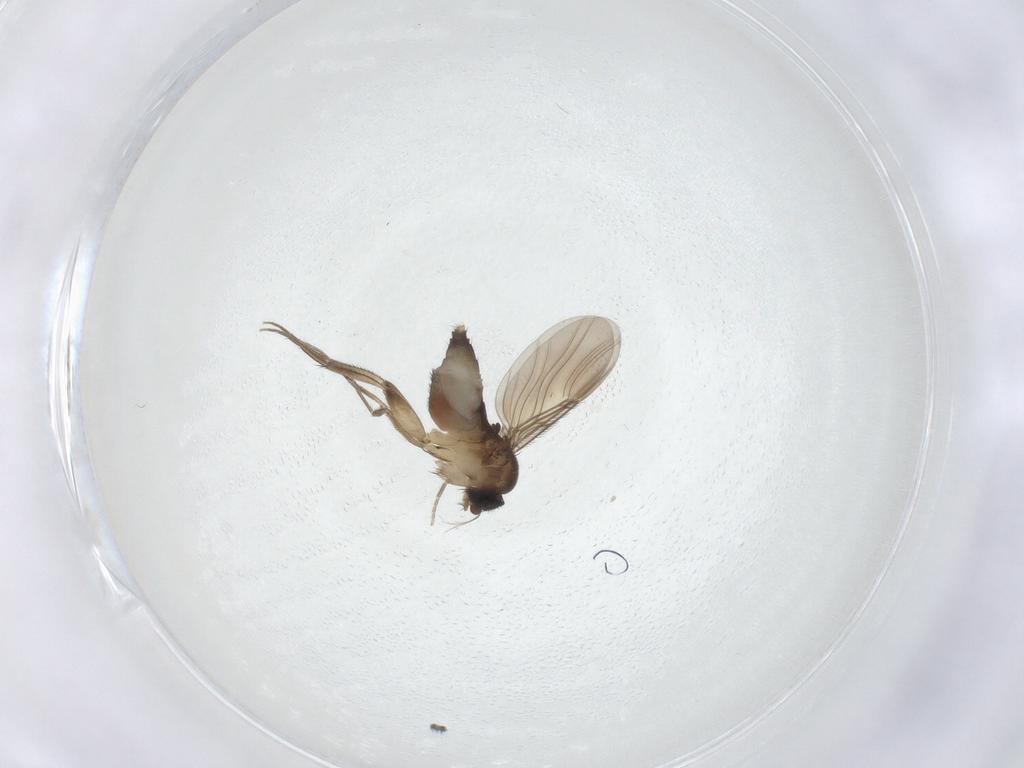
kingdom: Animalia
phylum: Arthropoda
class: Insecta
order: Diptera
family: Phoridae
